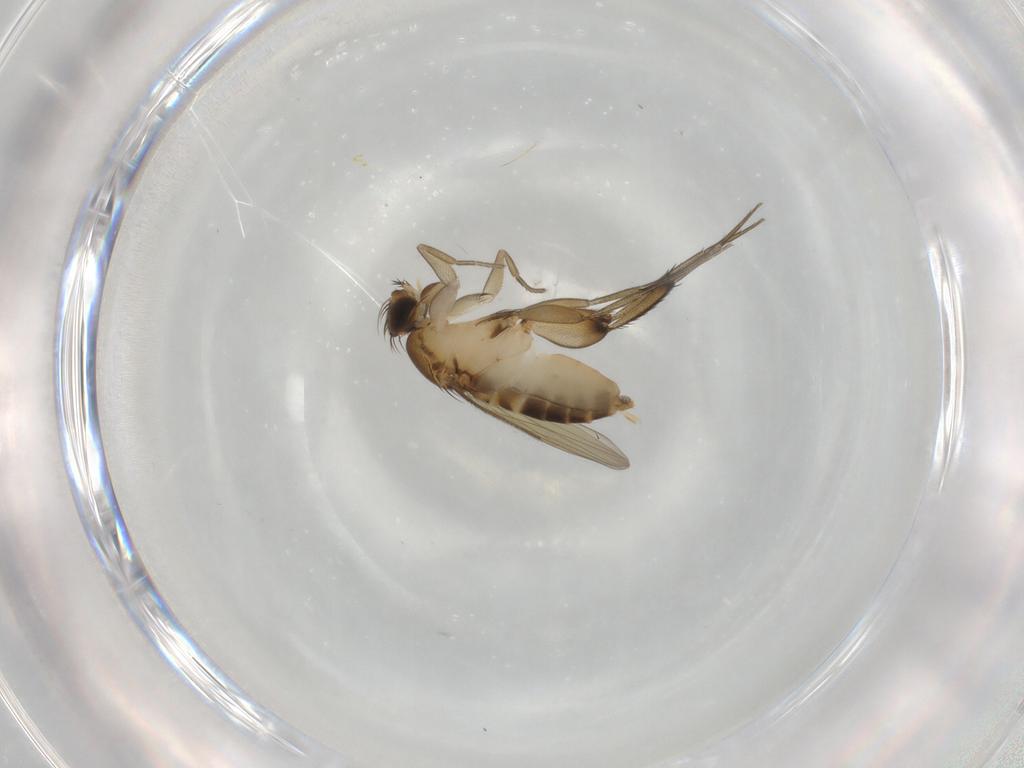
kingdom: Animalia
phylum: Arthropoda
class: Insecta
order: Diptera
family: Phoridae
